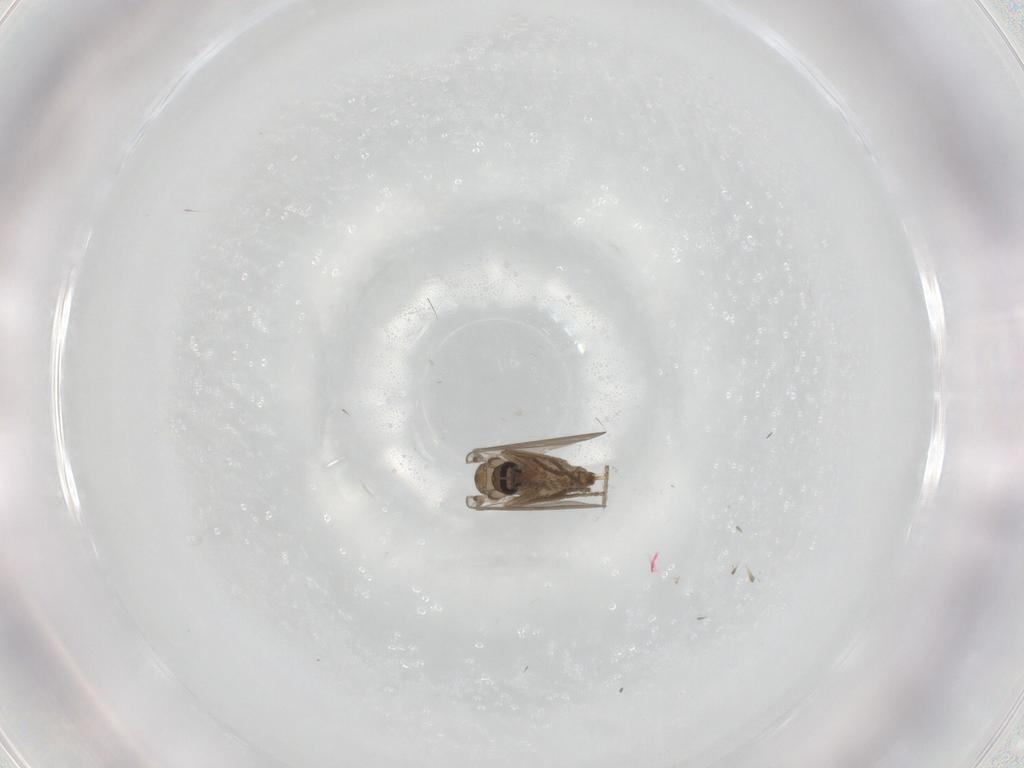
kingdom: Animalia
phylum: Arthropoda
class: Insecta
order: Diptera
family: Psychodidae
